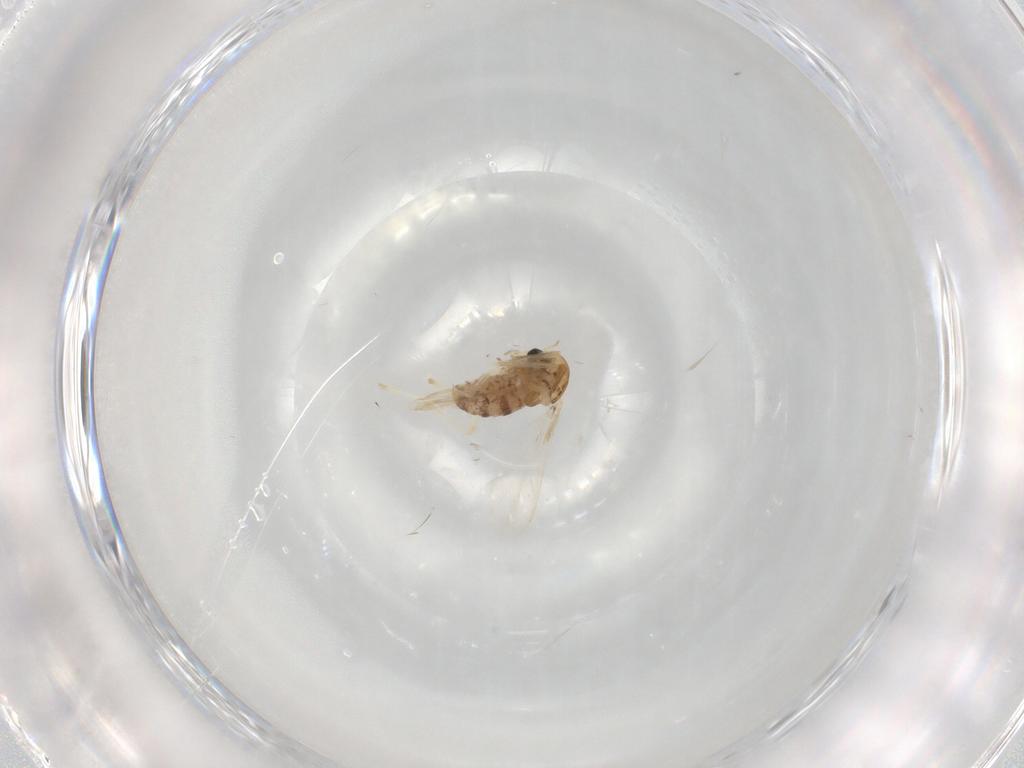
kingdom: Animalia
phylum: Arthropoda
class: Insecta
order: Diptera
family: Chironomidae
